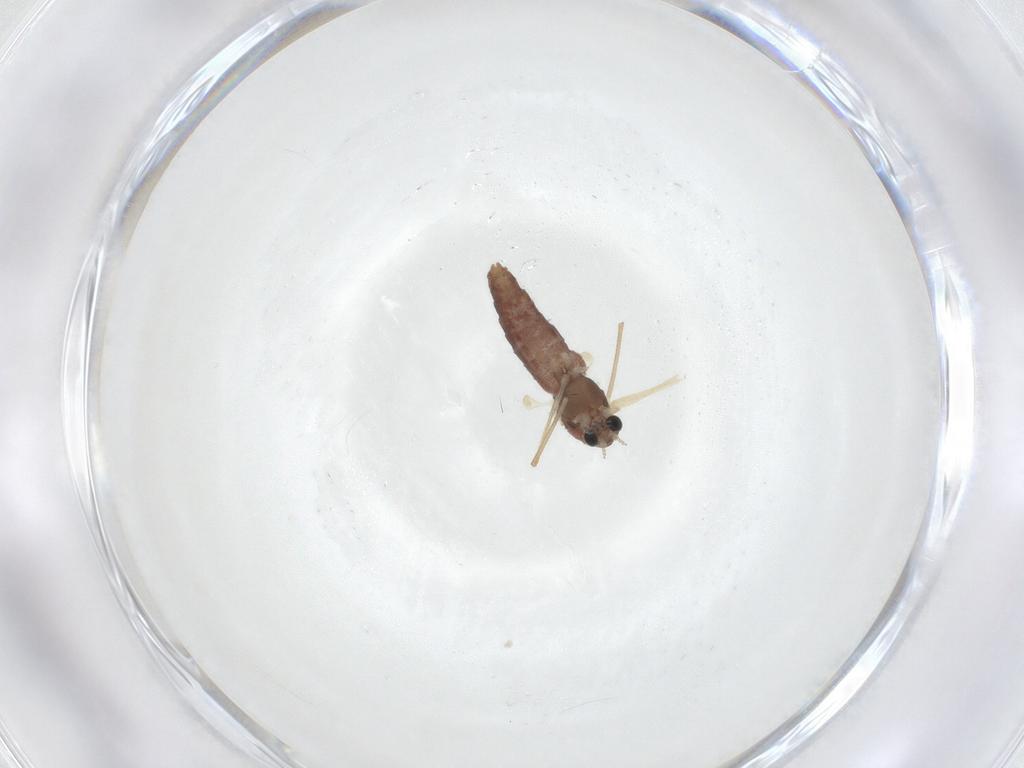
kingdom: Animalia
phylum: Arthropoda
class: Insecta
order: Diptera
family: Chironomidae
